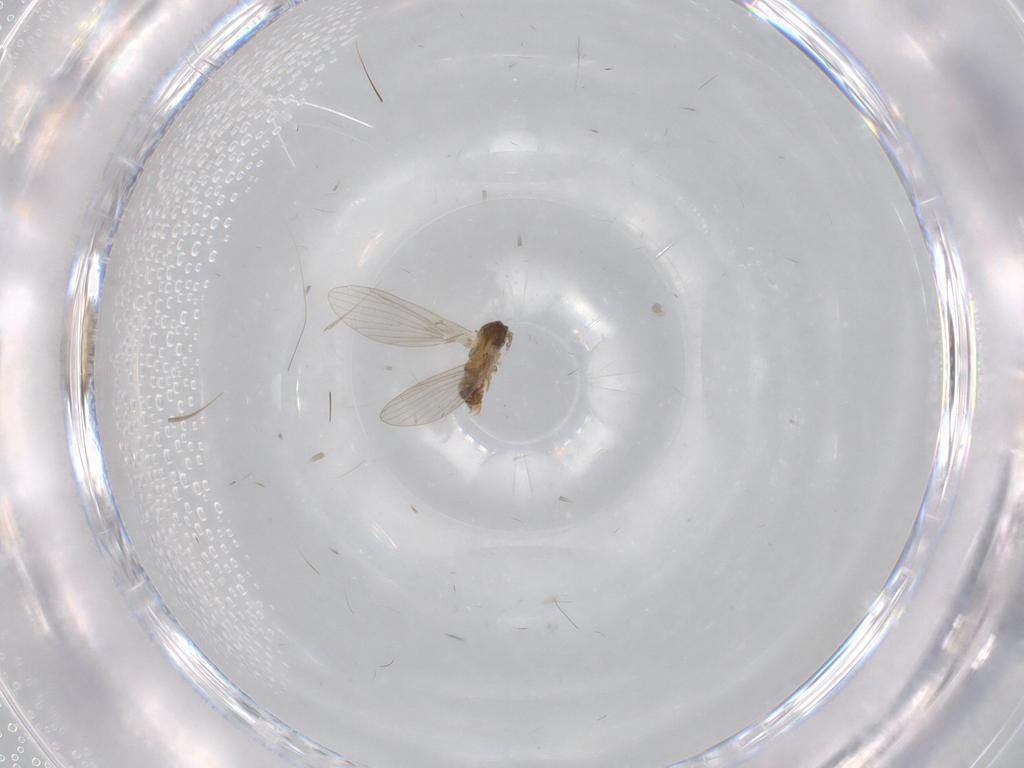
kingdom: Animalia
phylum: Arthropoda
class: Insecta
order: Diptera
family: Psychodidae
